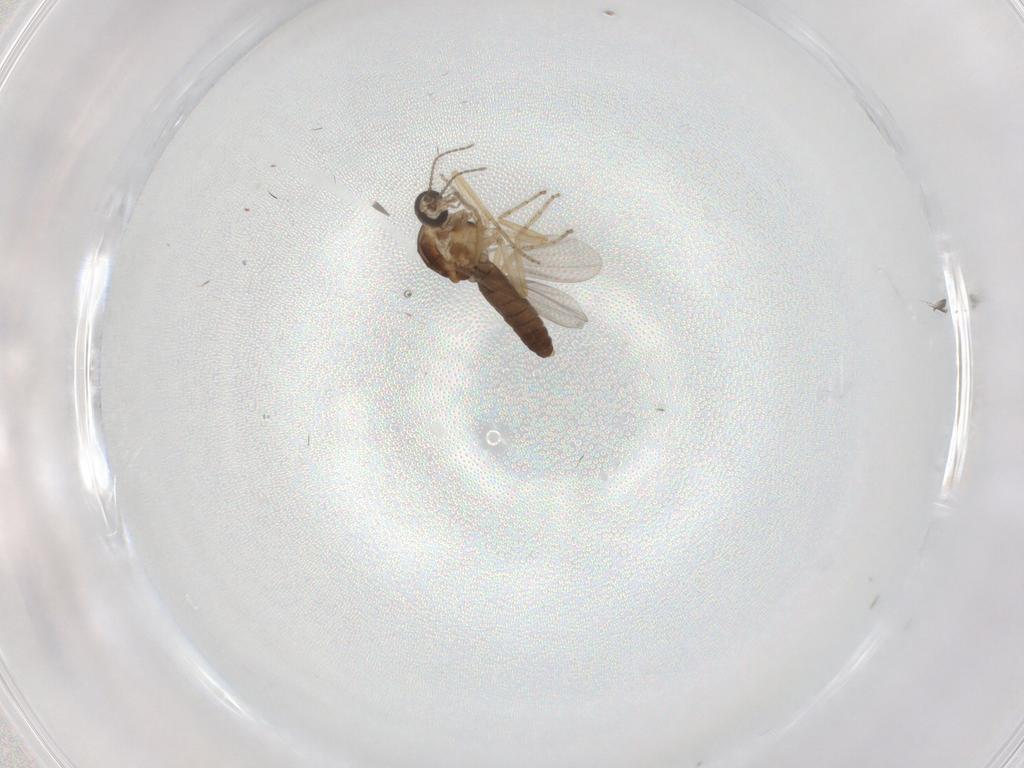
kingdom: Animalia
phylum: Arthropoda
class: Insecta
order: Diptera
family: Ceratopogonidae
